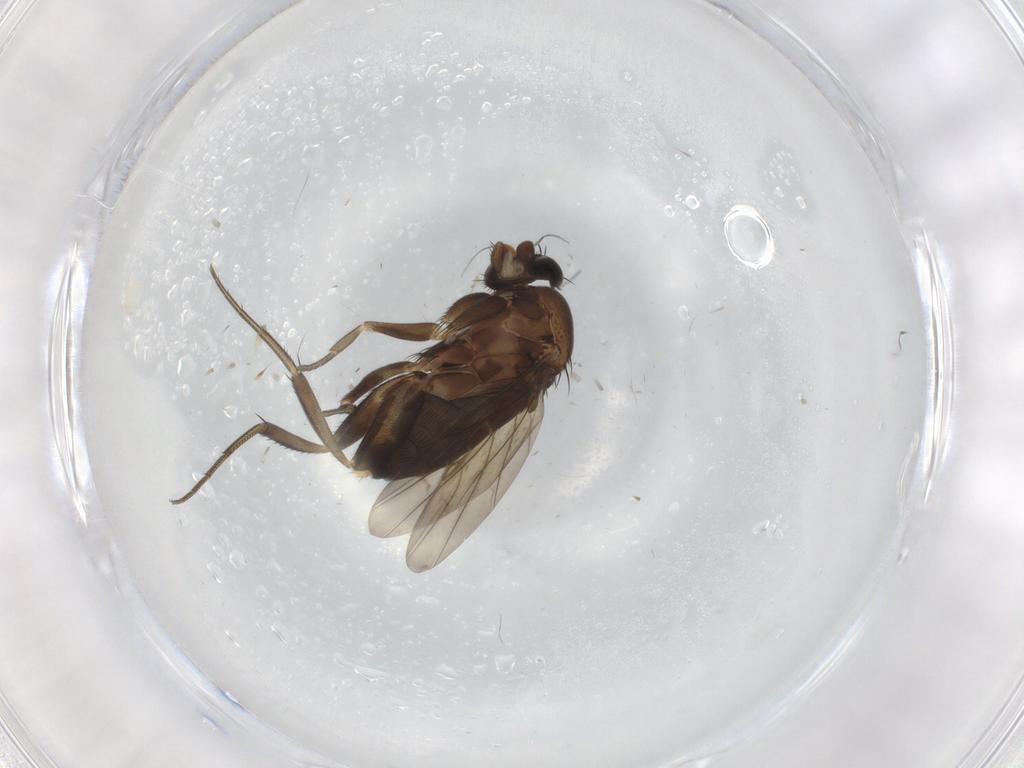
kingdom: Animalia
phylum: Arthropoda
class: Insecta
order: Diptera
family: Phoridae
